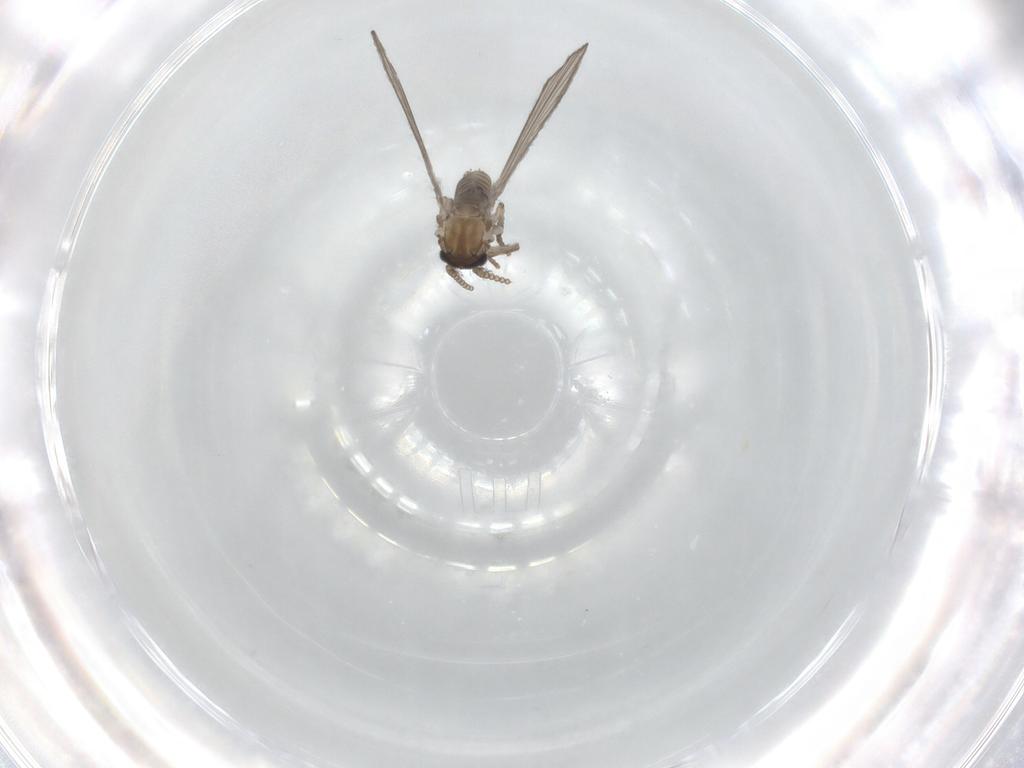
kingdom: Animalia
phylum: Arthropoda
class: Insecta
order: Diptera
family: Psychodidae
